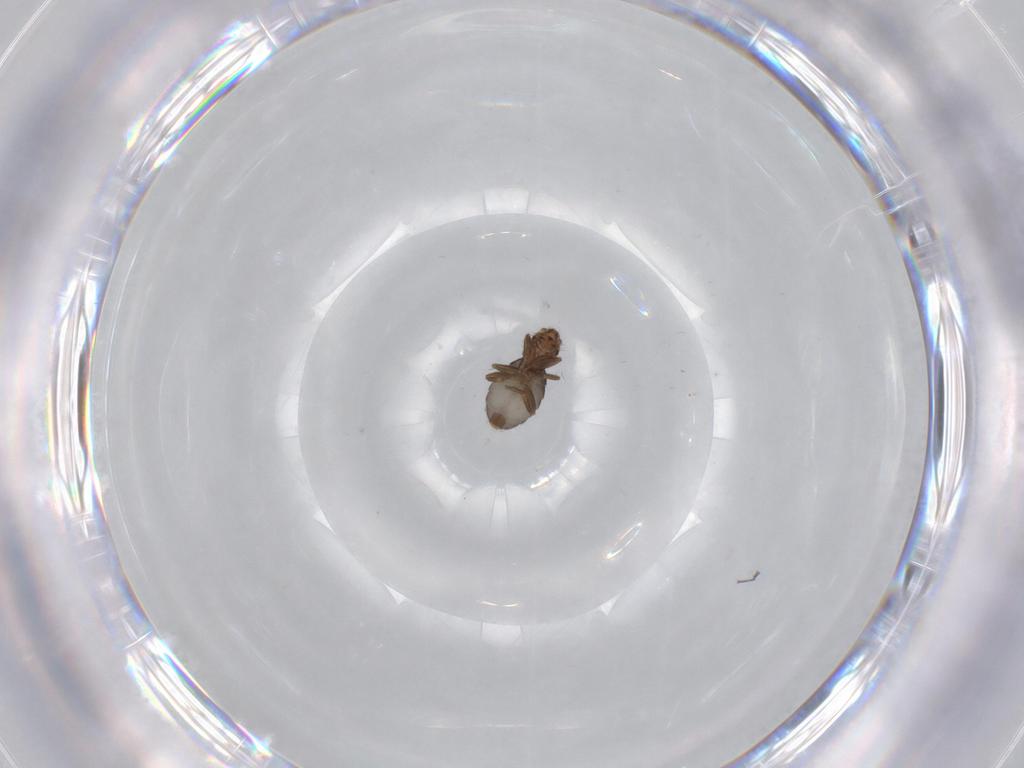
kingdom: Animalia
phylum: Arthropoda
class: Insecta
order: Diptera
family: Phoridae
